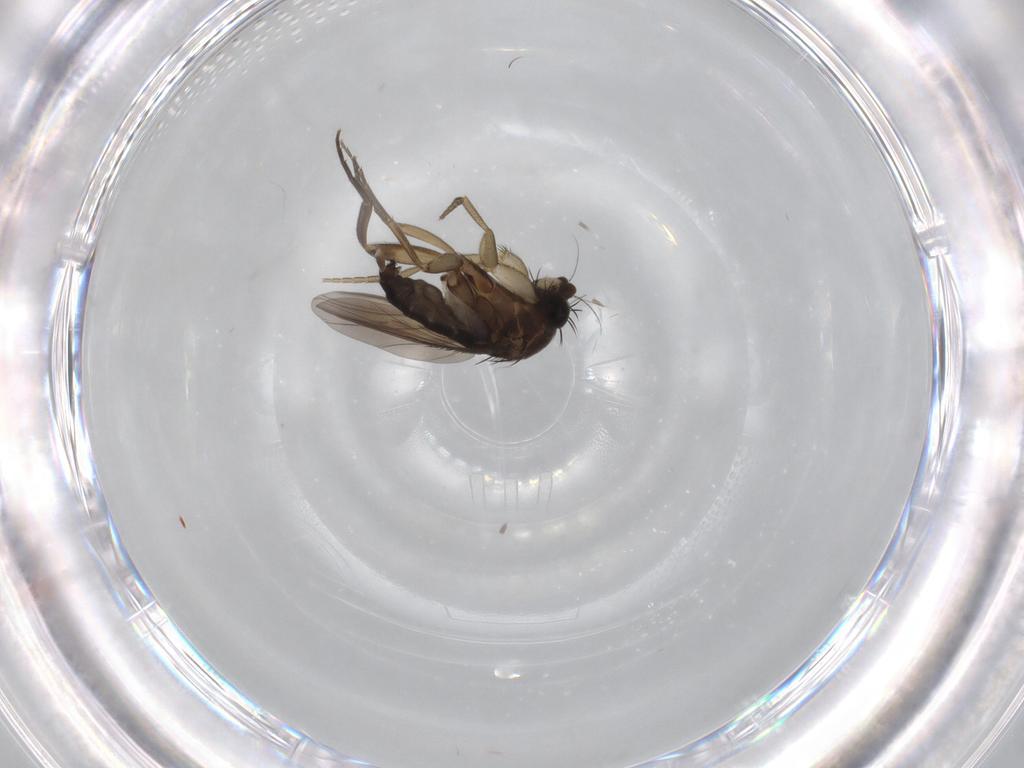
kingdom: Animalia
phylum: Arthropoda
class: Insecta
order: Diptera
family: Phoridae
